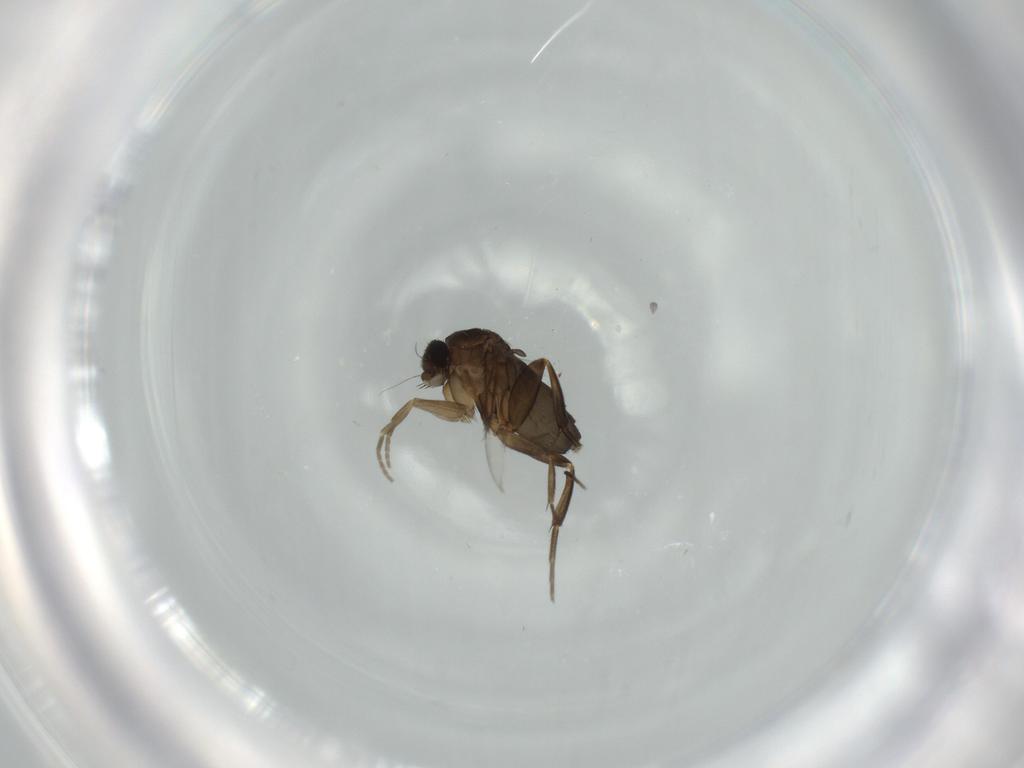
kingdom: Animalia
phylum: Arthropoda
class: Insecta
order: Diptera
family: Phoridae
